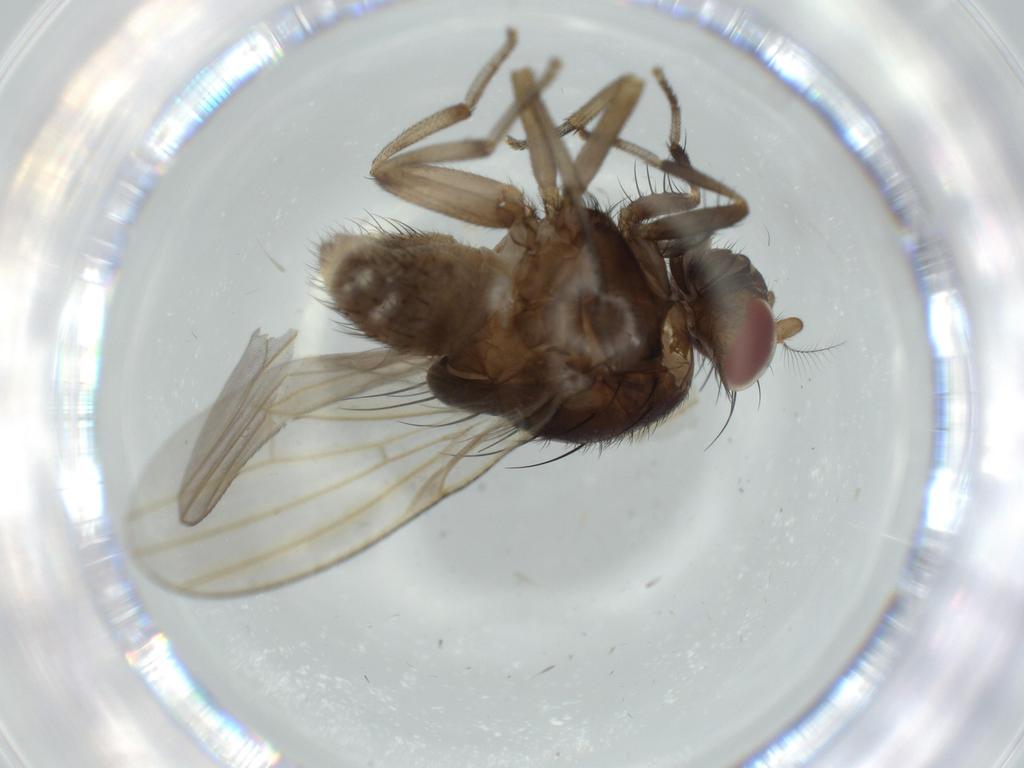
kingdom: Animalia
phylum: Arthropoda
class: Insecta
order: Diptera
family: Lauxaniidae
